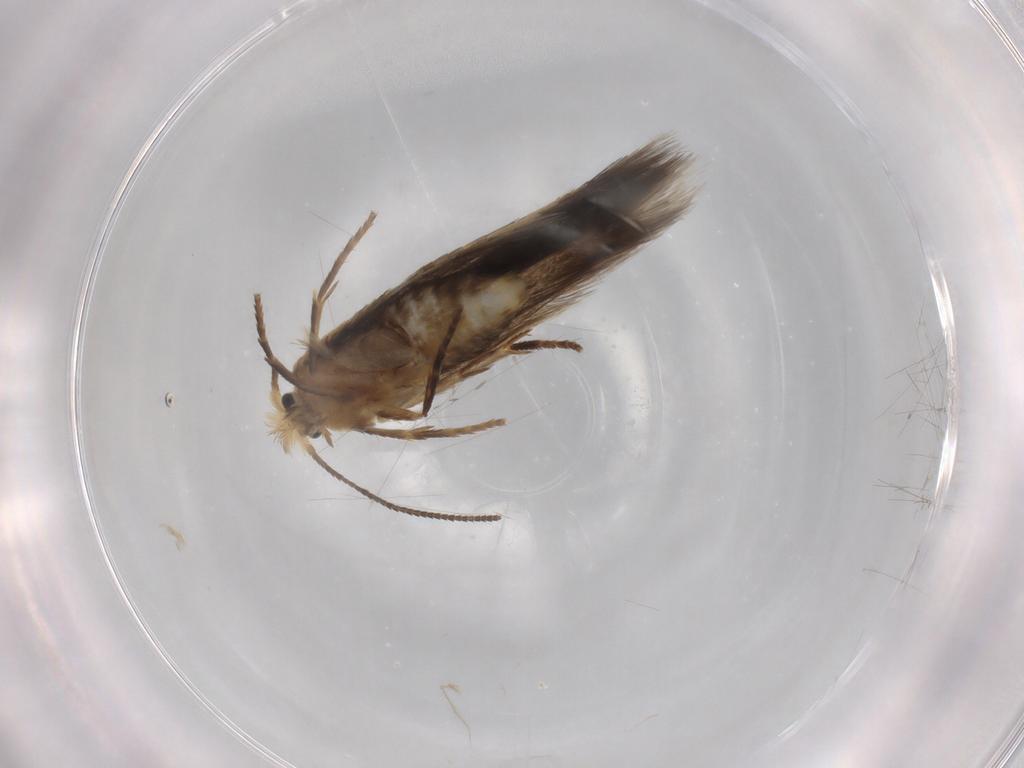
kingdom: Animalia
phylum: Arthropoda
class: Insecta
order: Lepidoptera
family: Nepticulidae
